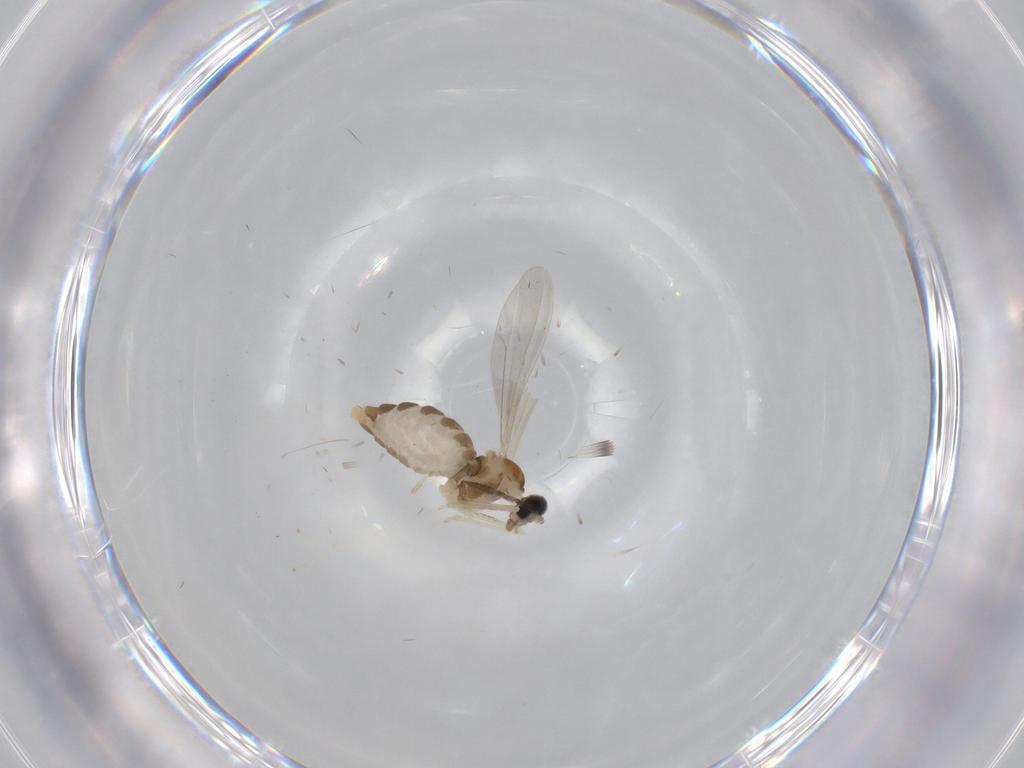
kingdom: Animalia
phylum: Arthropoda
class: Insecta
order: Diptera
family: Cecidomyiidae
